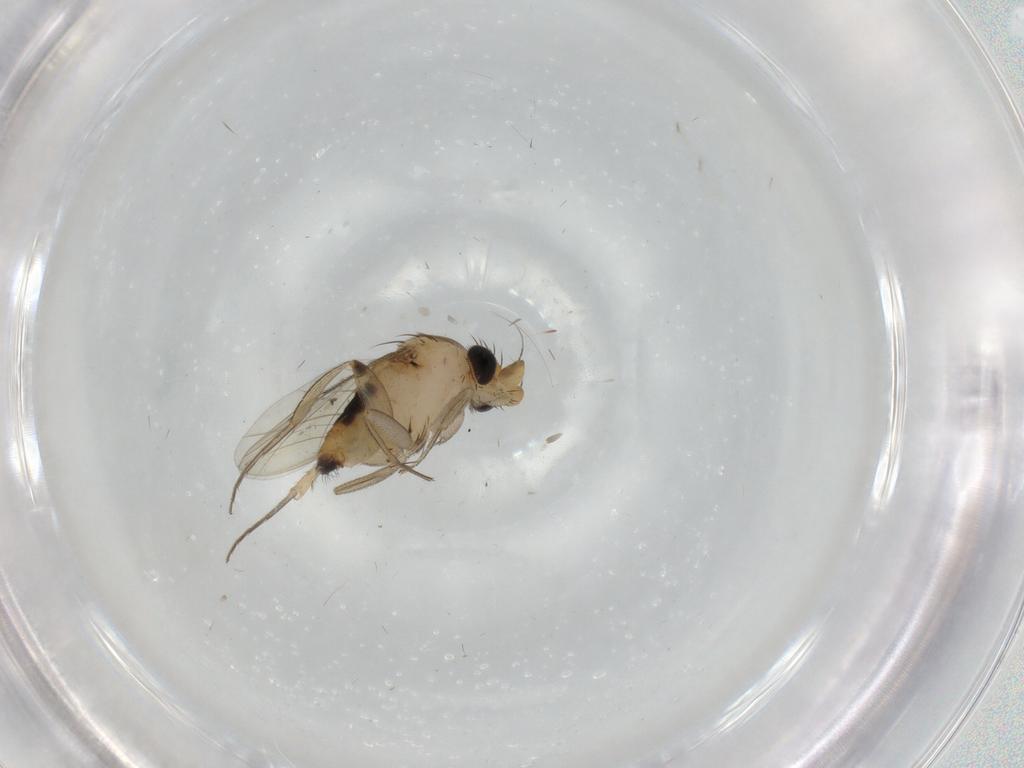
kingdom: Animalia
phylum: Arthropoda
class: Insecta
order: Diptera
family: Phoridae
